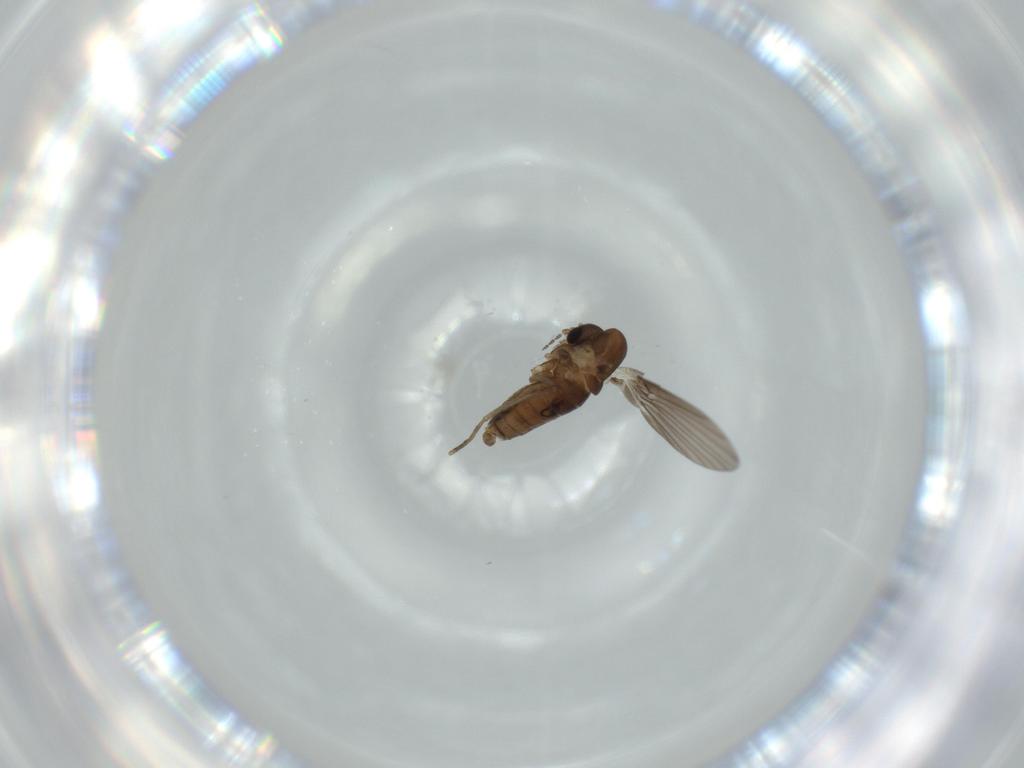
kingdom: Animalia
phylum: Arthropoda
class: Insecta
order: Diptera
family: Psychodidae
